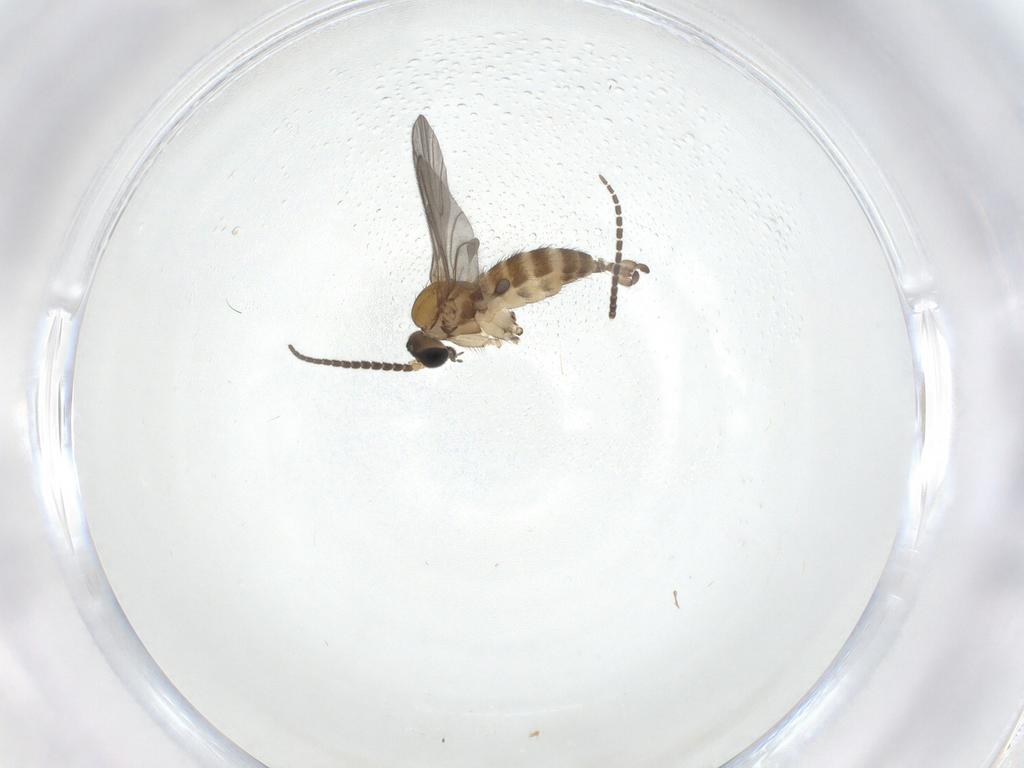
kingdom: Animalia
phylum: Arthropoda
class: Insecta
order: Diptera
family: Sciaridae
